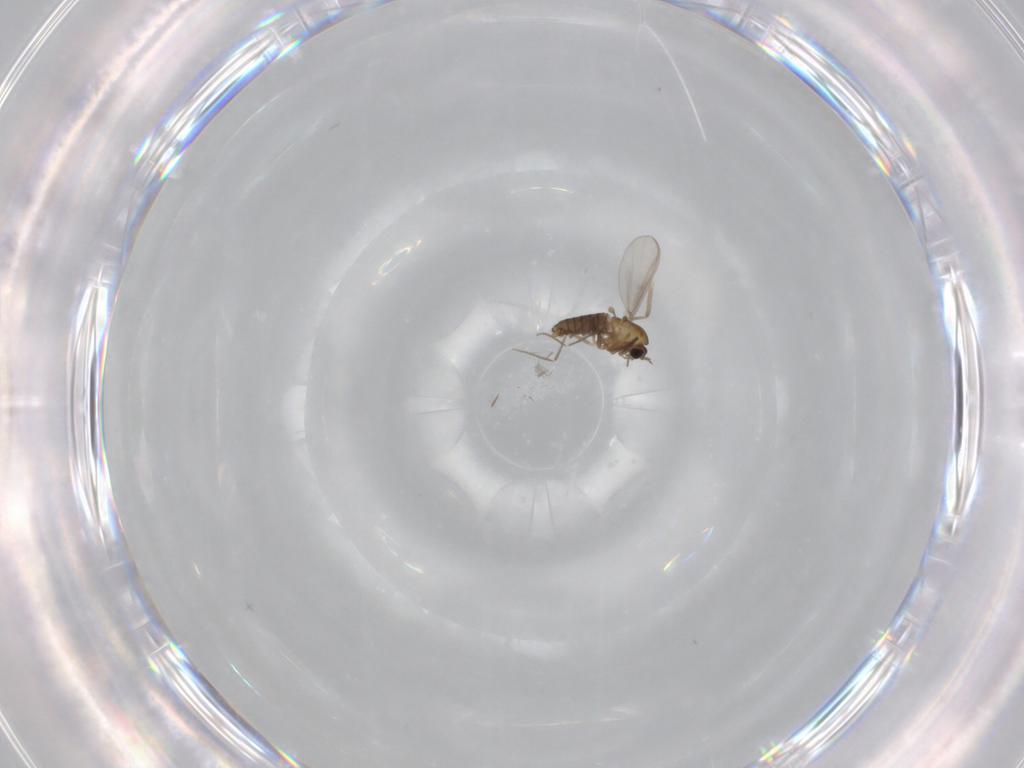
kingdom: Animalia
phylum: Arthropoda
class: Insecta
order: Diptera
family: Chironomidae
